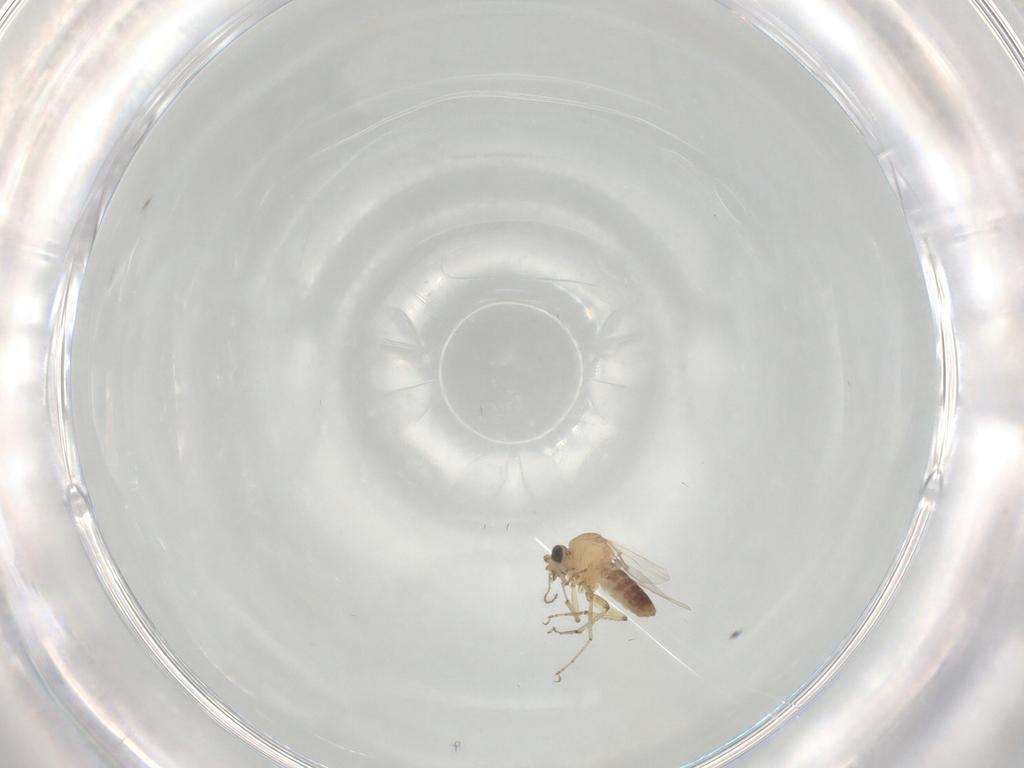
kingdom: Animalia
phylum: Arthropoda
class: Insecta
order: Diptera
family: Ceratopogonidae
